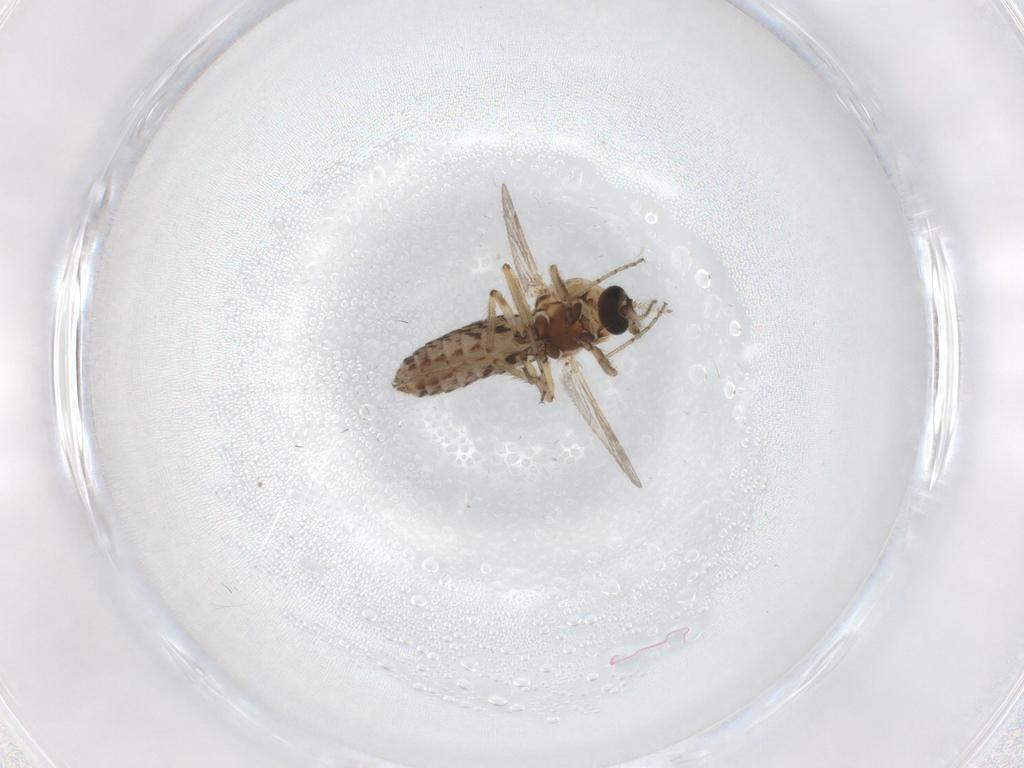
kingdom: Animalia
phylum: Arthropoda
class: Insecta
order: Diptera
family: Ceratopogonidae
